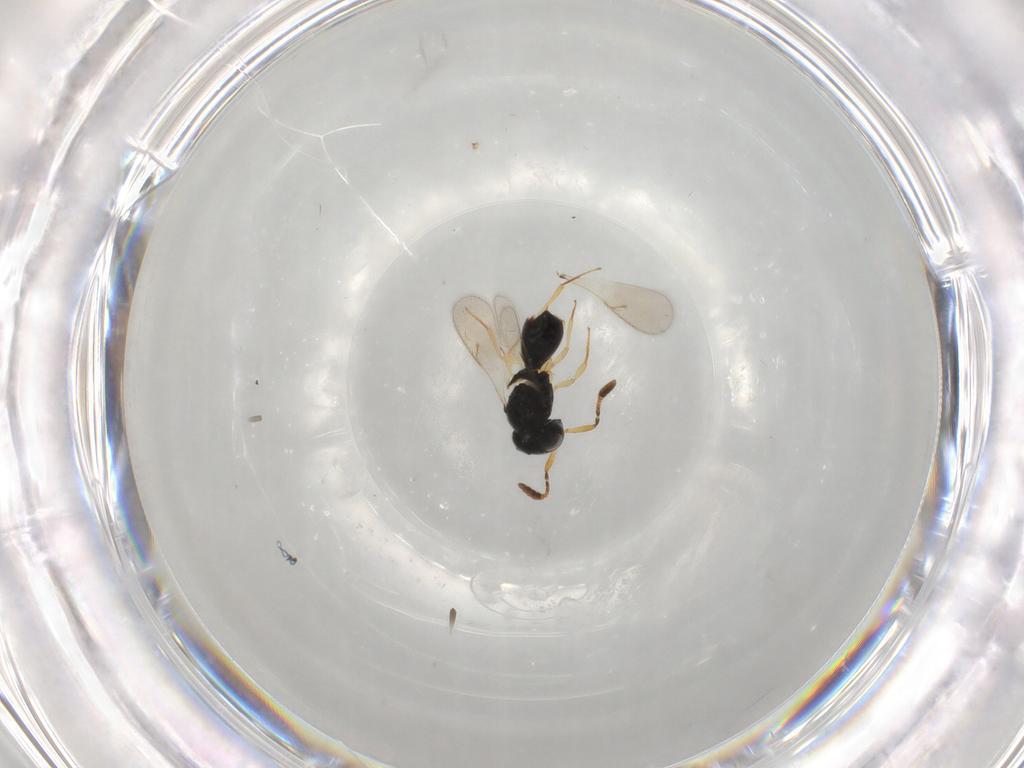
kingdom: Animalia
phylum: Arthropoda
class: Insecta
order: Hymenoptera
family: Scelionidae
